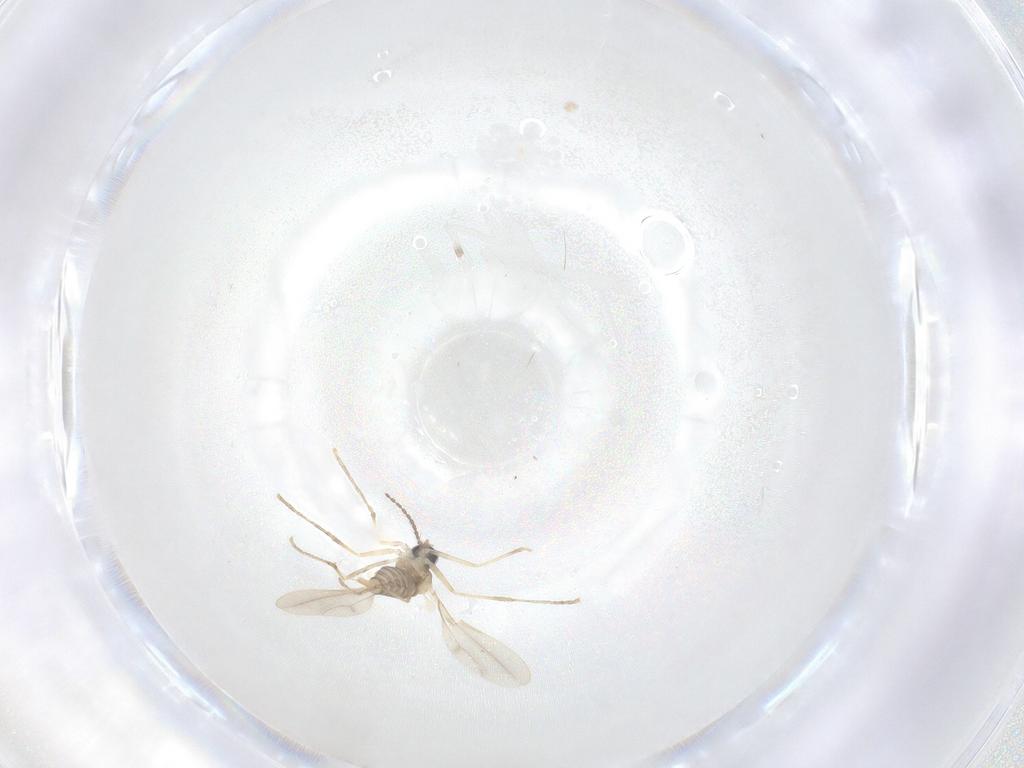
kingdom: Animalia
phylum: Arthropoda
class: Insecta
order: Diptera
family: Cecidomyiidae
